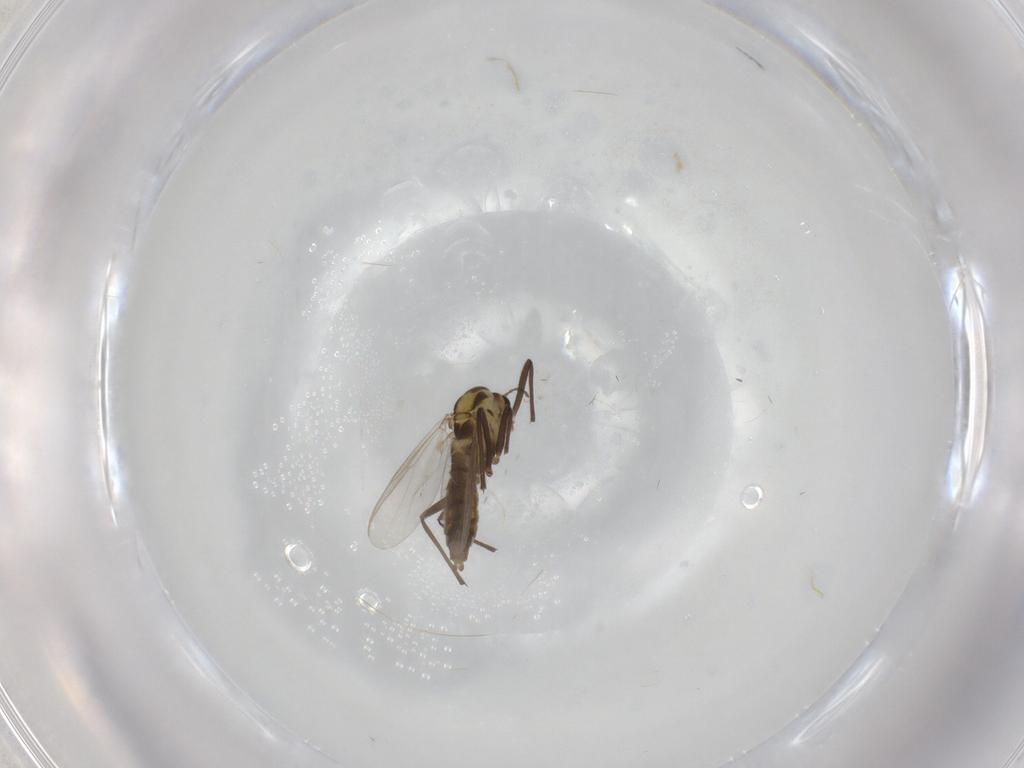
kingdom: Animalia
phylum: Arthropoda
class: Insecta
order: Diptera
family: Chironomidae
